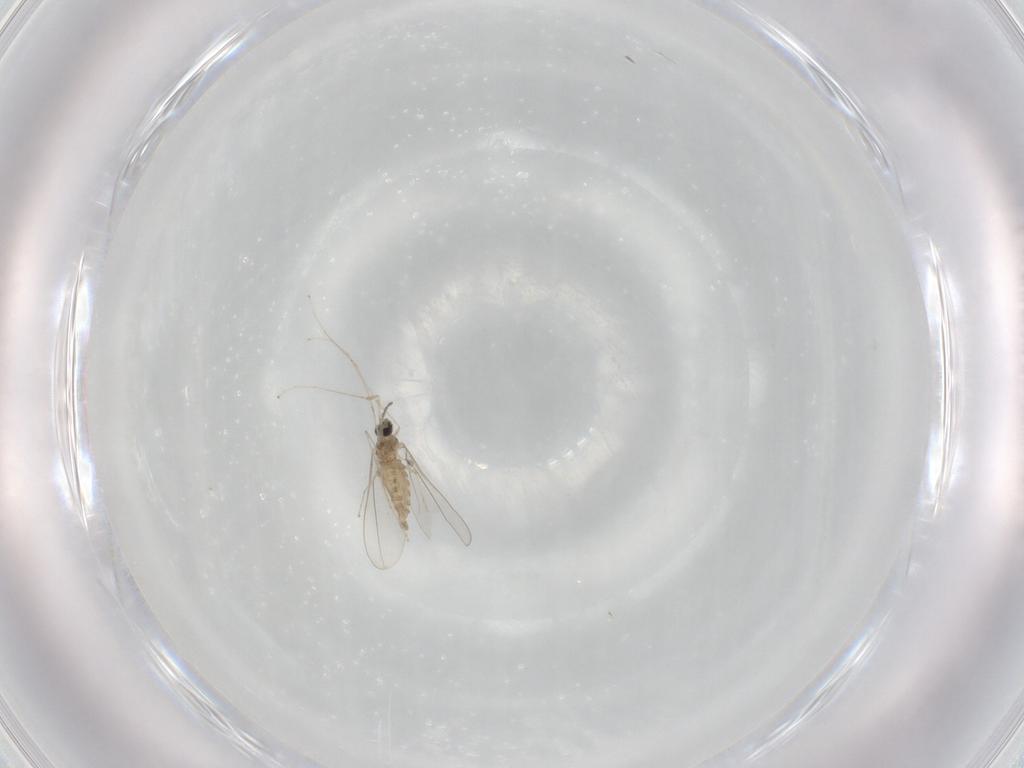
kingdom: Animalia
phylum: Arthropoda
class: Insecta
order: Diptera
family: Cecidomyiidae
